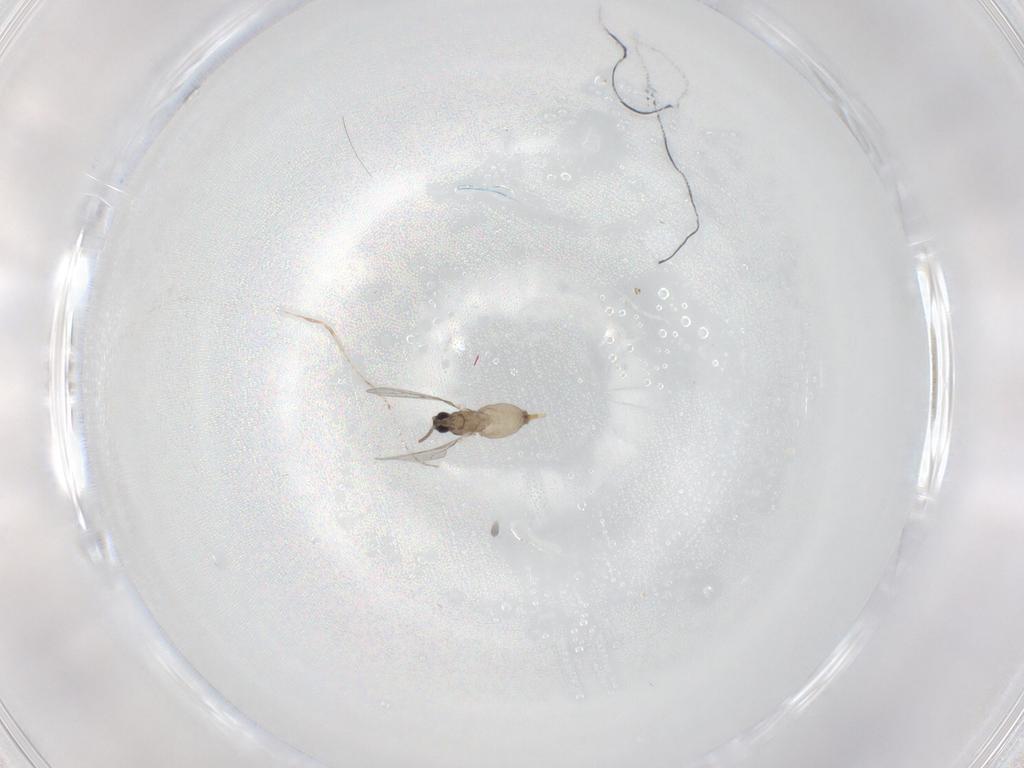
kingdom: Animalia
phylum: Arthropoda
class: Insecta
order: Diptera
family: Cecidomyiidae
